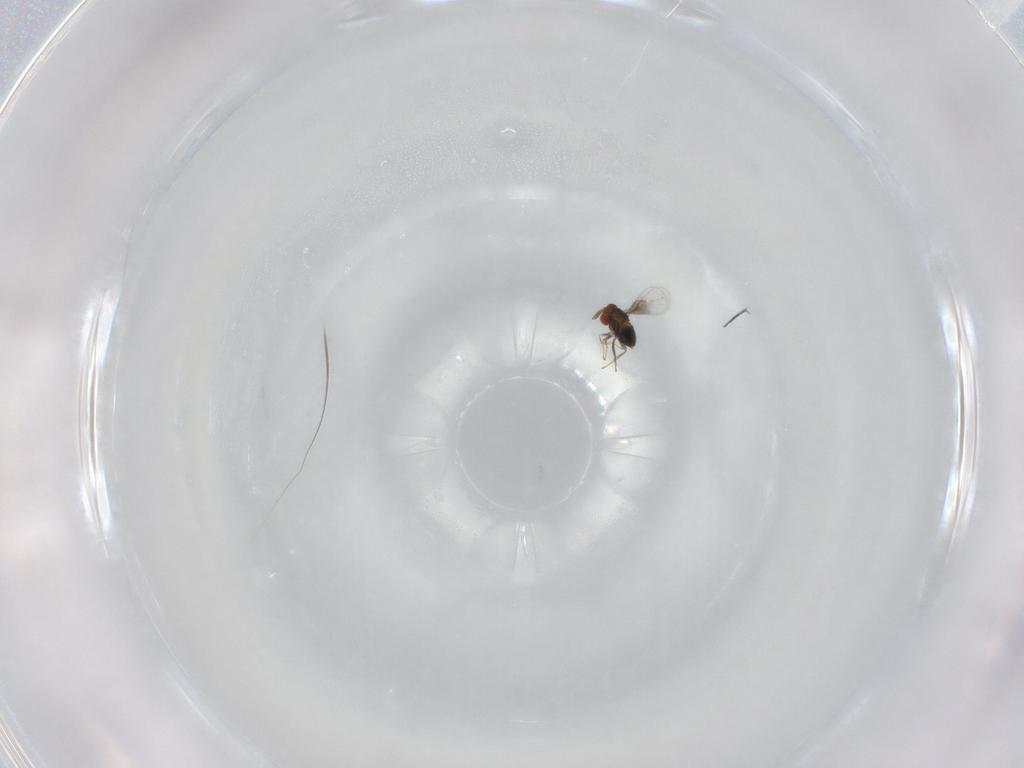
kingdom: Animalia
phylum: Arthropoda
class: Insecta
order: Hymenoptera
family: Trichogrammatidae
